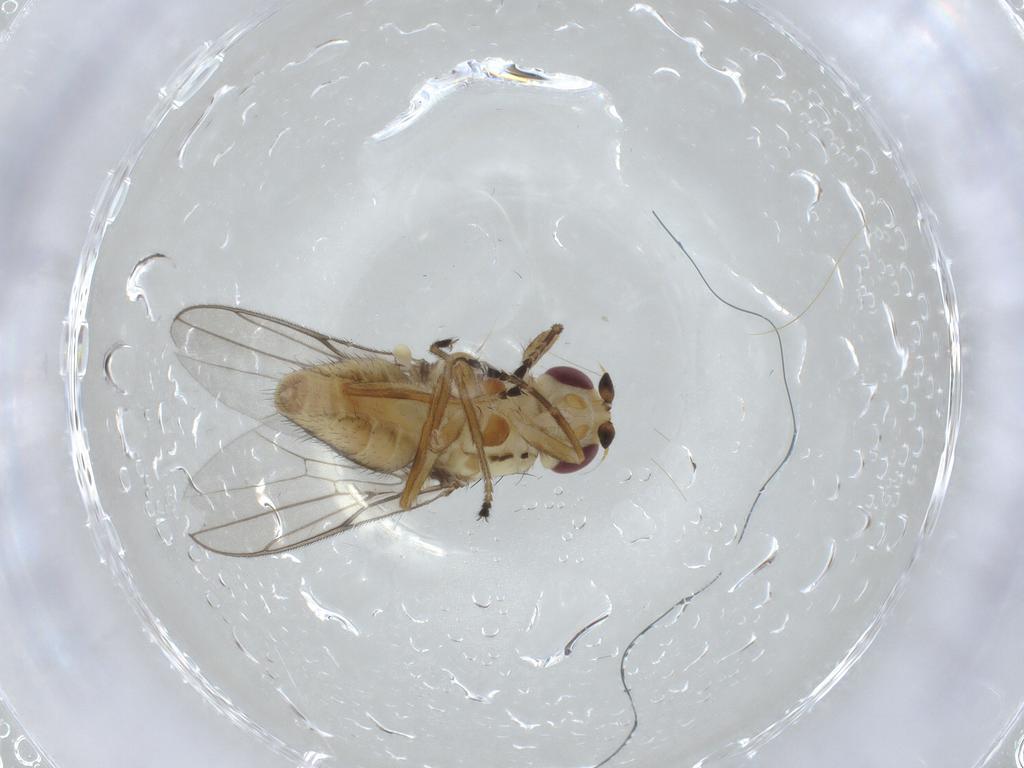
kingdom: Animalia
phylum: Arthropoda
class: Insecta
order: Diptera
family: Chloropidae
